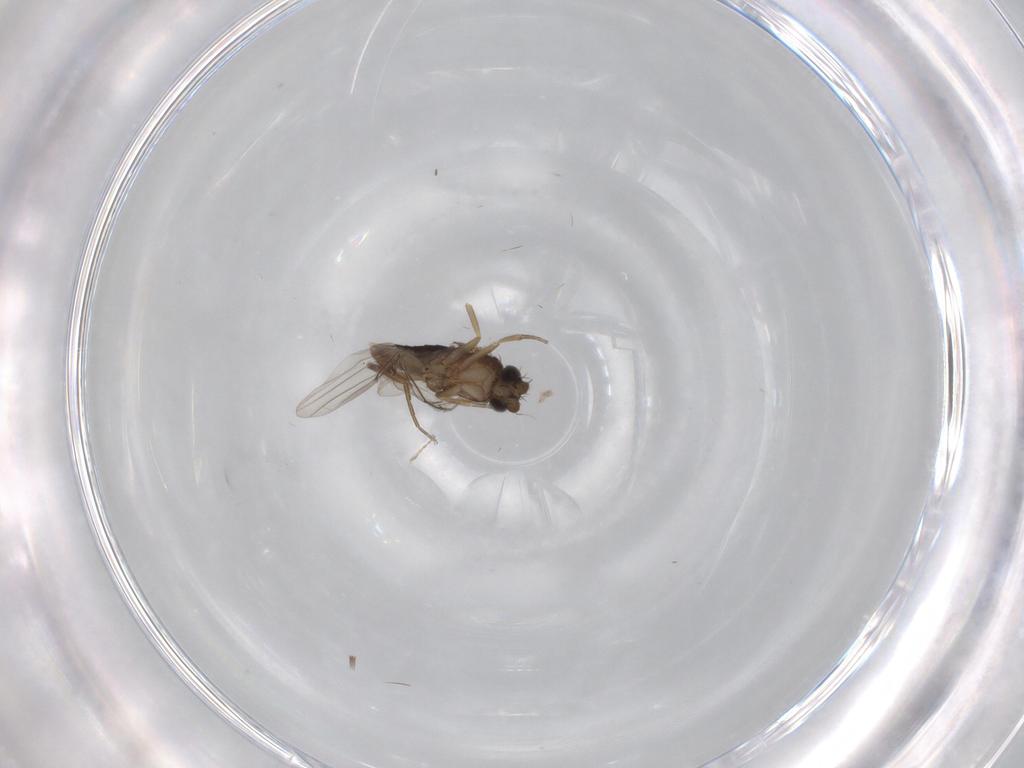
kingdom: Animalia
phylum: Arthropoda
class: Insecta
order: Diptera
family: Phoridae
